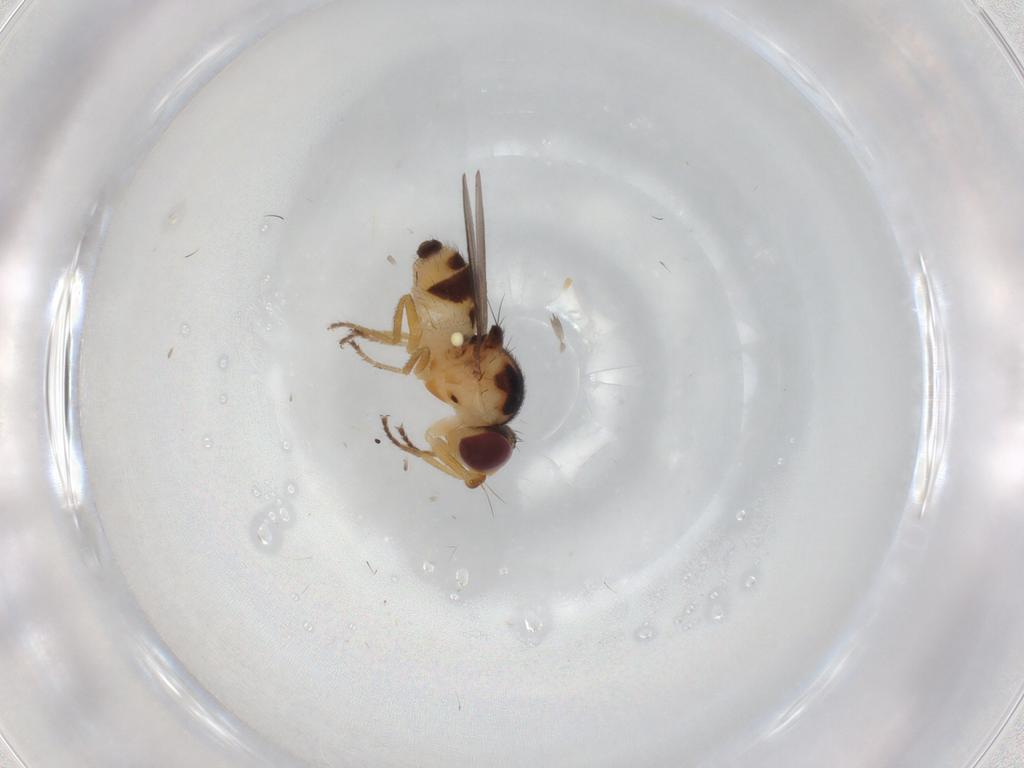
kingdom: Animalia
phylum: Arthropoda
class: Insecta
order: Diptera
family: Chloropidae
